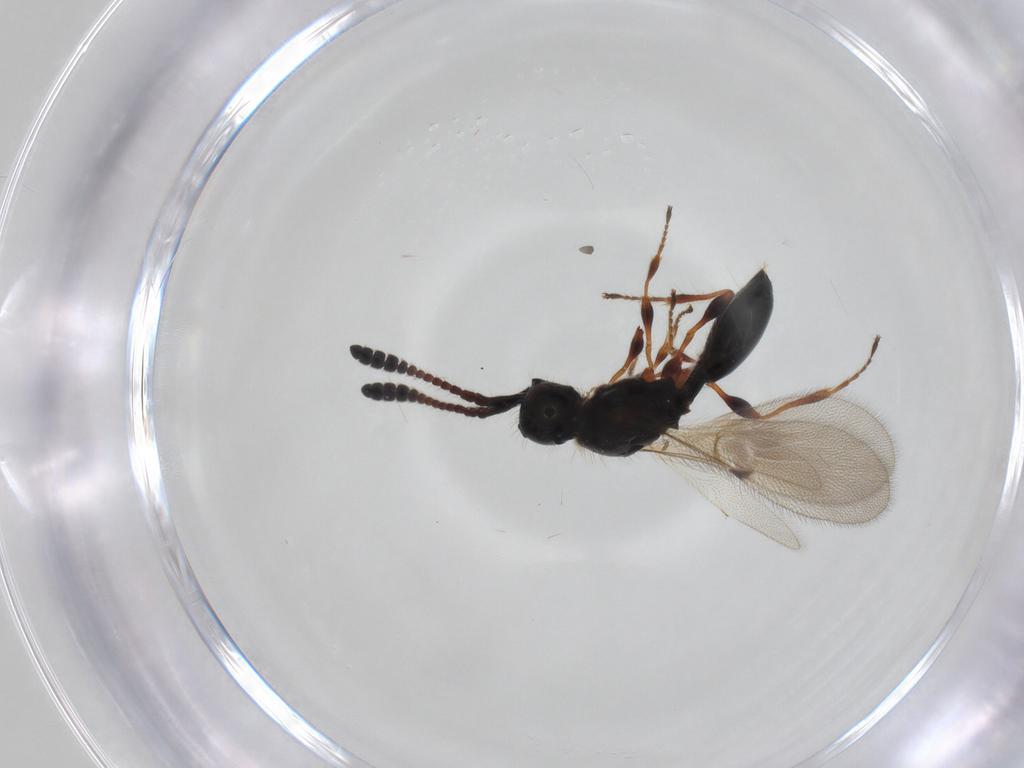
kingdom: Animalia
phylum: Arthropoda
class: Insecta
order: Hymenoptera
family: Diapriidae
